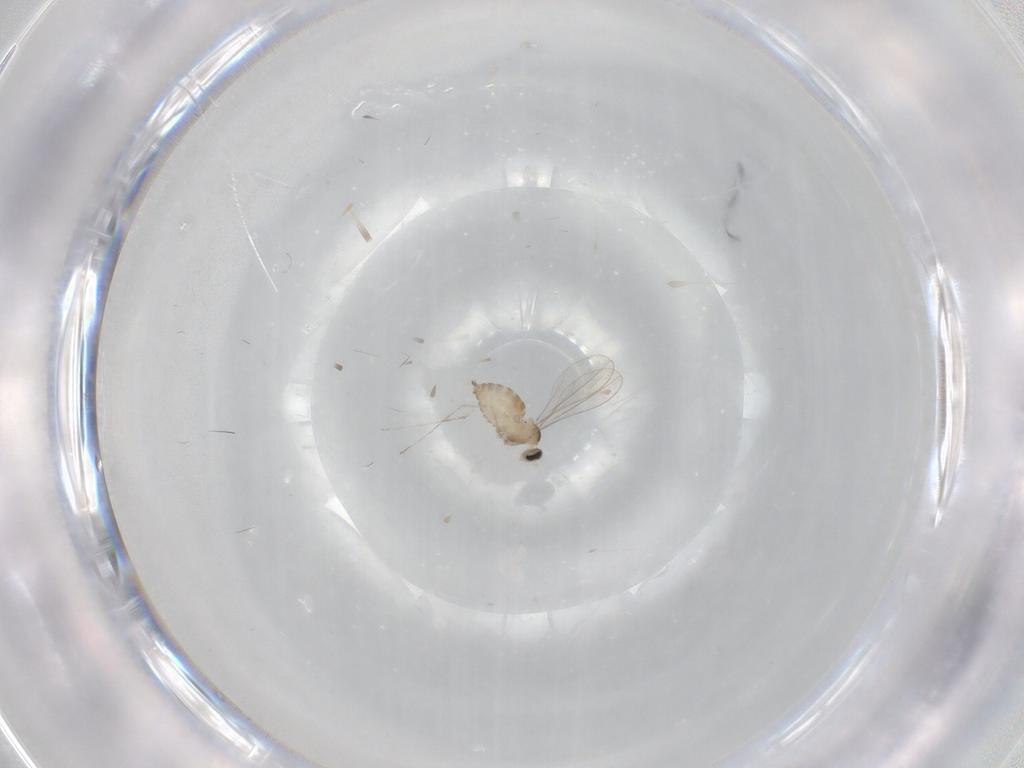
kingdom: Animalia
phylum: Arthropoda
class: Insecta
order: Diptera
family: Cecidomyiidae
